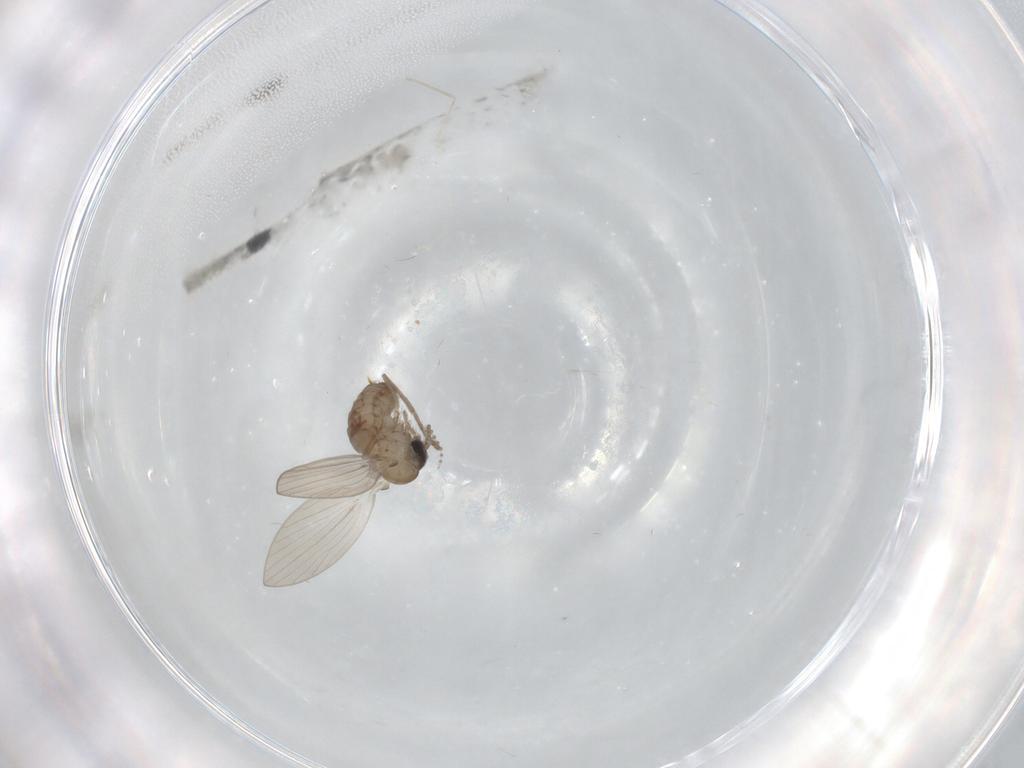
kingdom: Animalia
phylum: Arthropoda
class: Insecta
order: Diptera
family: Psychodidae
